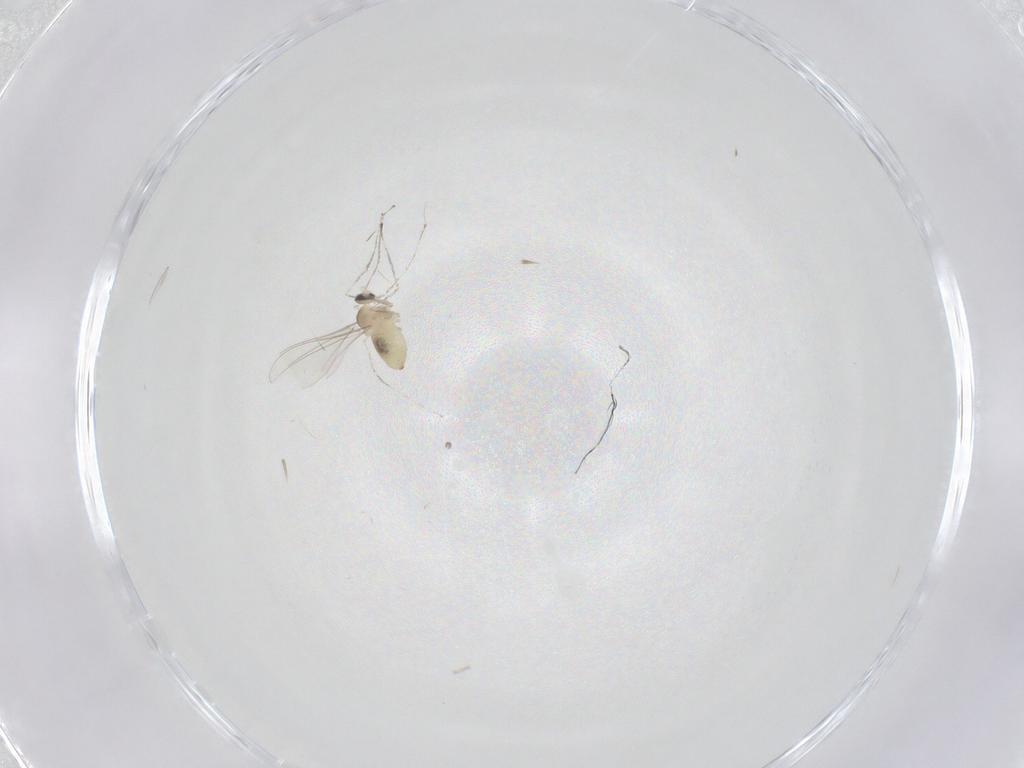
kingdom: Animalia
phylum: Arthropoda
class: Insecta
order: Diptera
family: Cecidomyiidae
